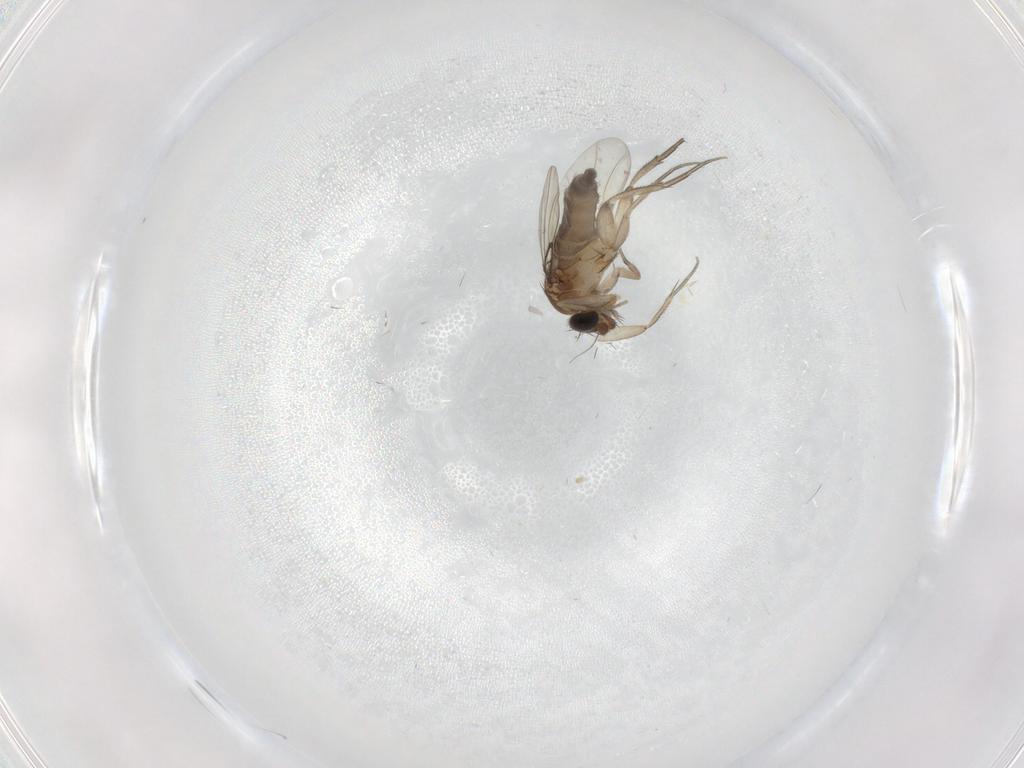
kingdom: Animalia
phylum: Arthropoda
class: Insecta
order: Diptera
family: Phoridae
